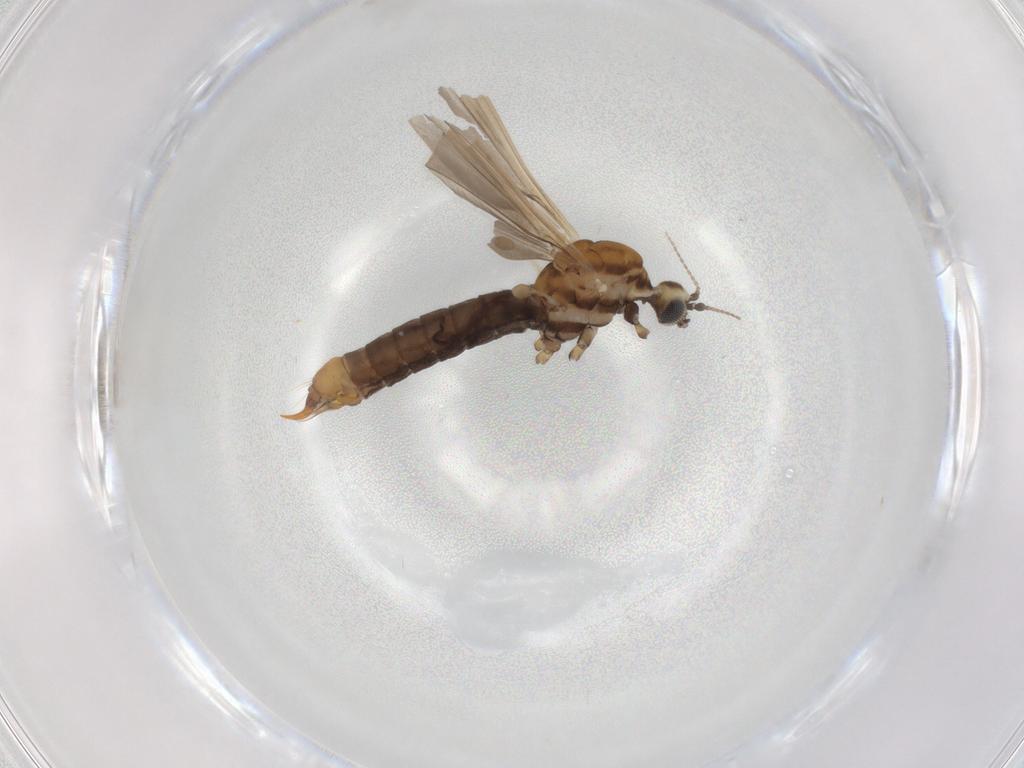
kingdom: Animalia
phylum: Arthropoda
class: Insecta
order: Diptera
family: Limoniidae
